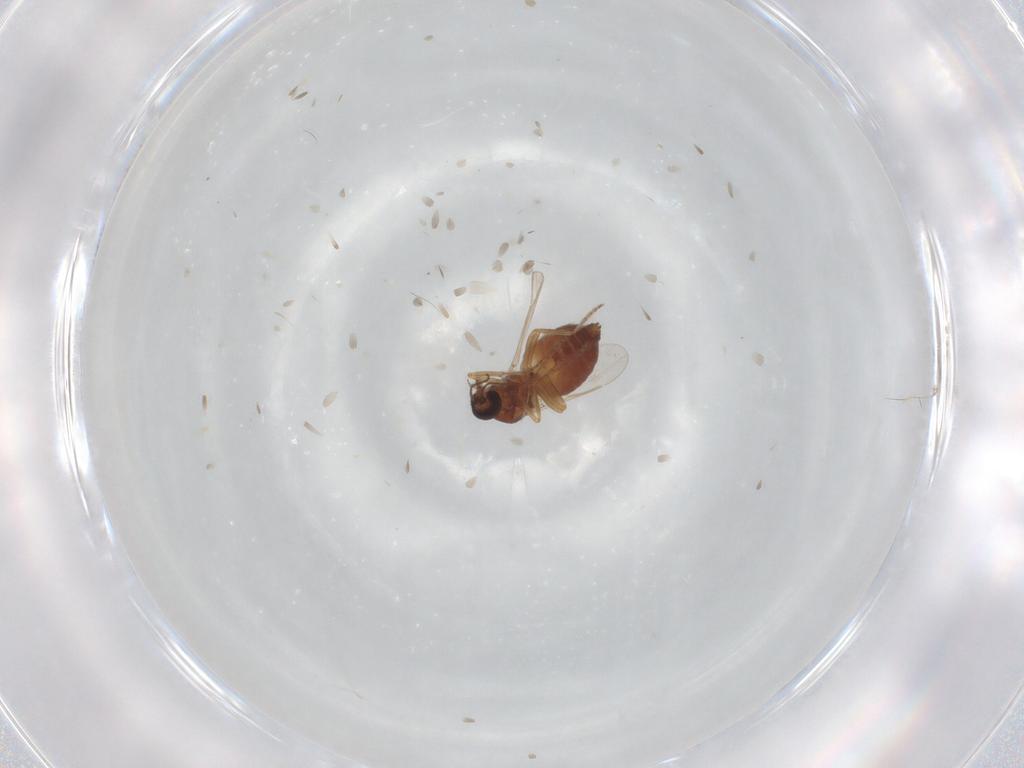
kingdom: Animalia
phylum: Arthropoda
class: Insecta
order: Diptera
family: Ceratopogonidae
